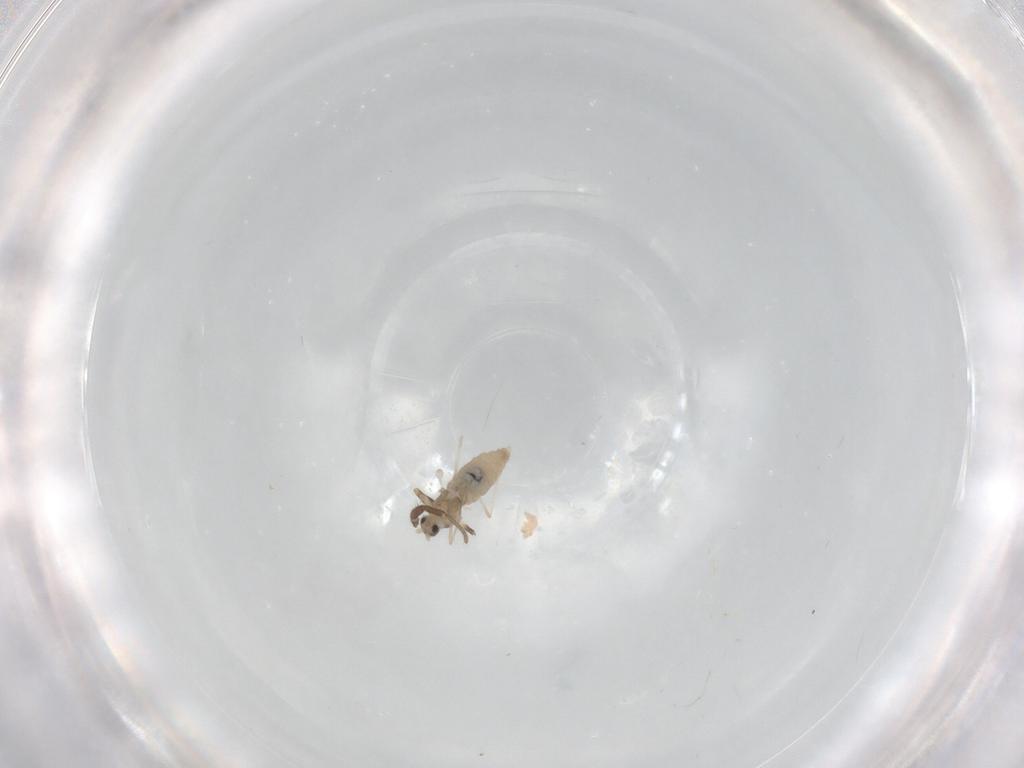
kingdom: Animalia
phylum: Arthropoda
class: Insecta
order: Diptera
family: Cecidomyiidae
